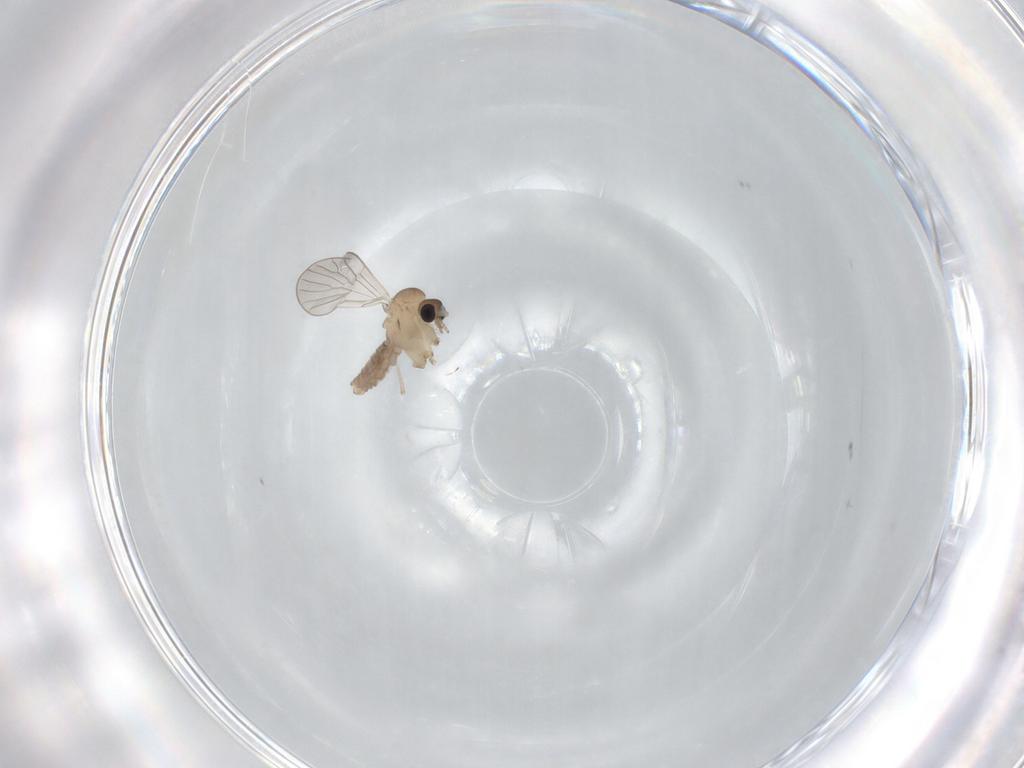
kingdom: Animalia
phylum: Arthropoda
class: Insecta
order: Diptera
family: Psychodidae
